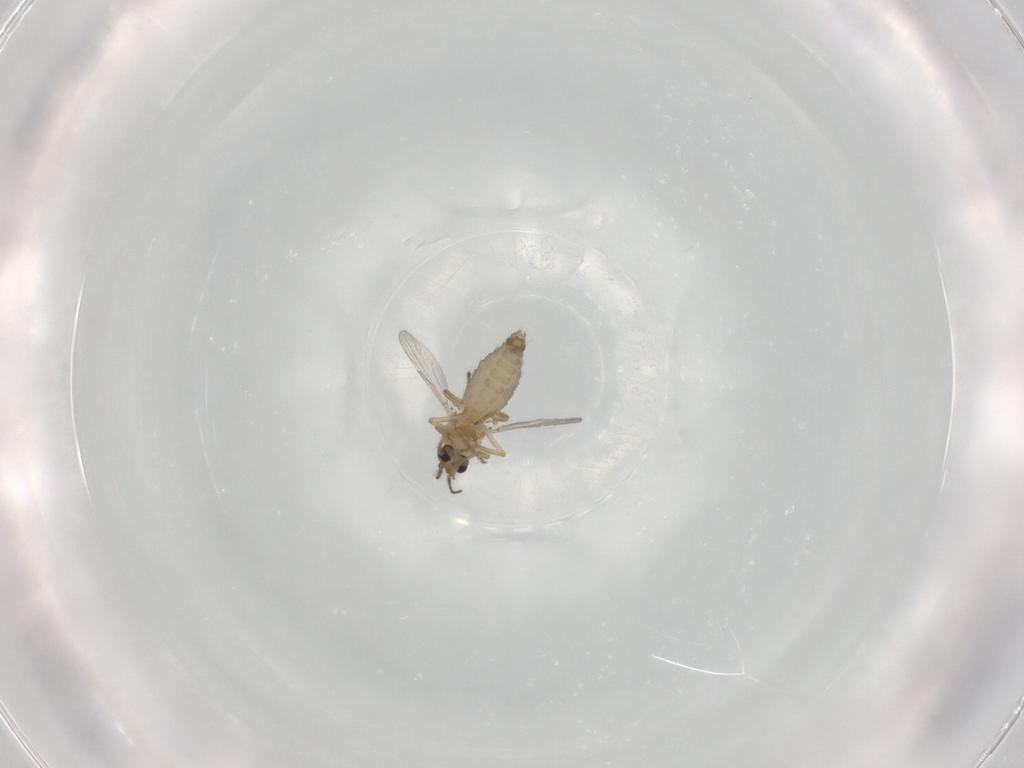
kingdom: Animalia
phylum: Arthropoda
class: Insecta
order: Diptera
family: Ceratopogonidae
